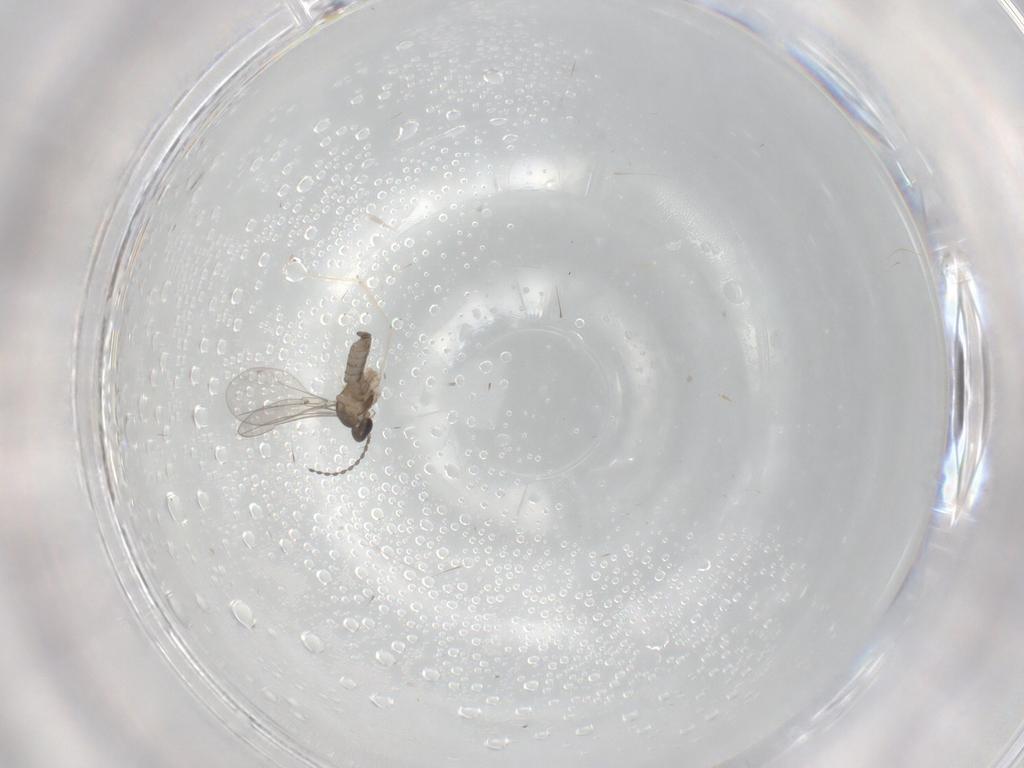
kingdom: Animalia
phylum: Arthropoda
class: Insecta
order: Diptera
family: Cecidomyiidae
